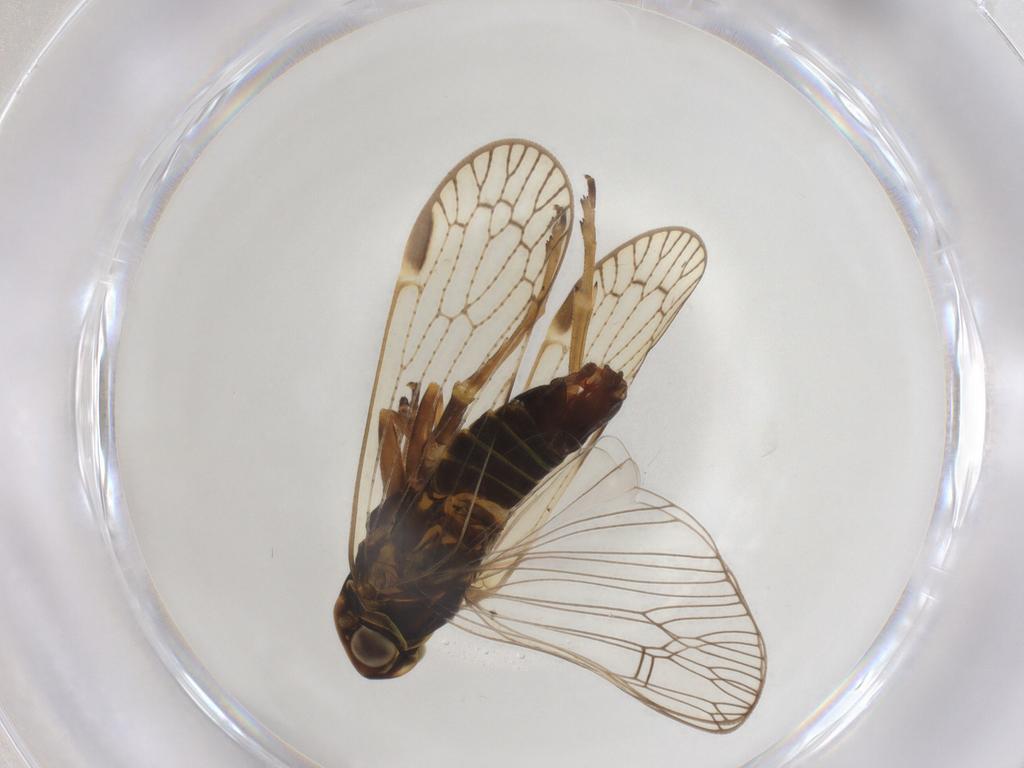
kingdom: Animalia
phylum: Arthropoda
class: Insecta
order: Hemiptera
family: Cixiidae
